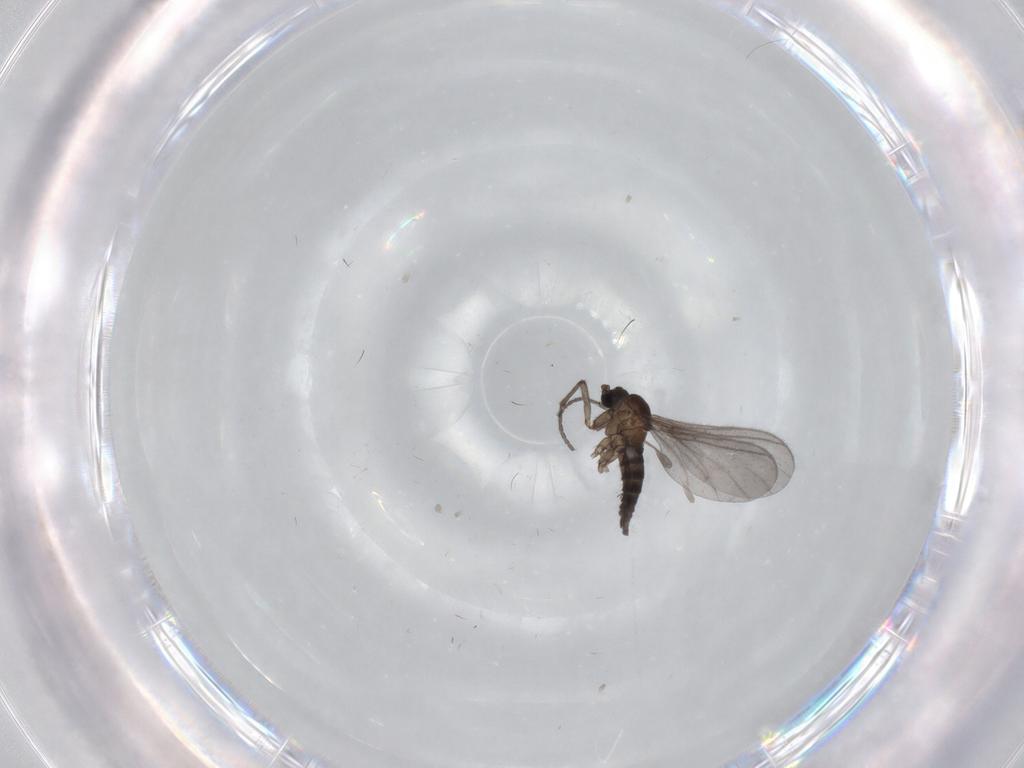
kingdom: Animalia
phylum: Arthropoda
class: Insecta
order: Diptera
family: Sciaridae
